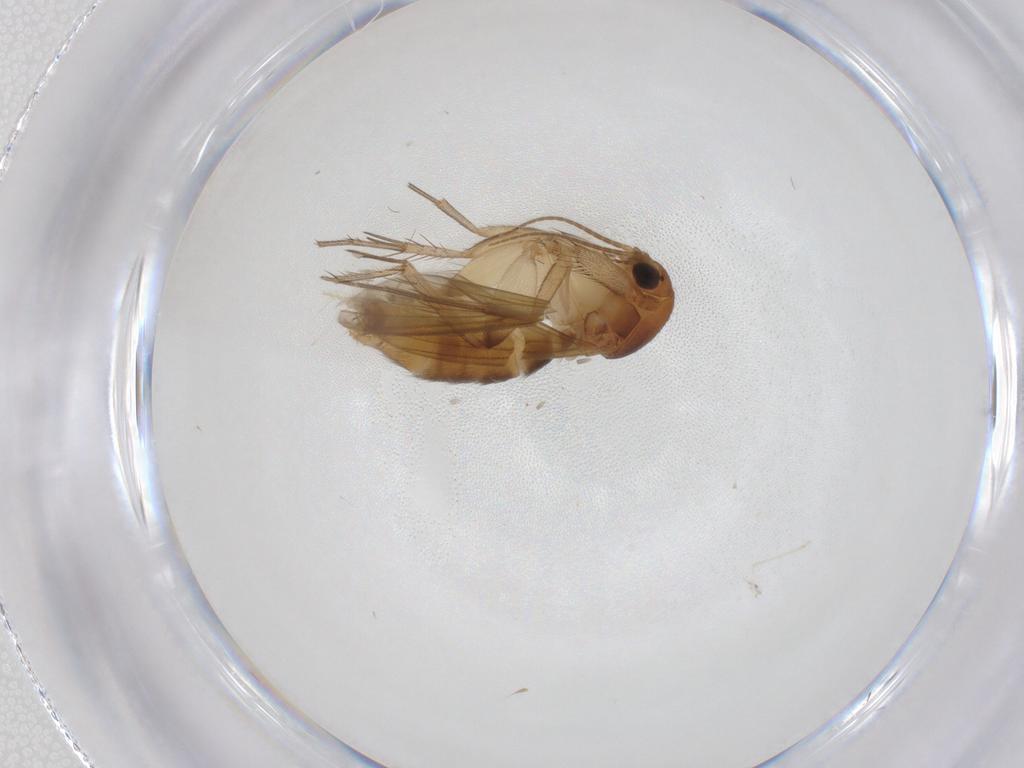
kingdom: Animalia
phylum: Arthropoda
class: Insecta
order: Diptera
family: Mycetophilidae
